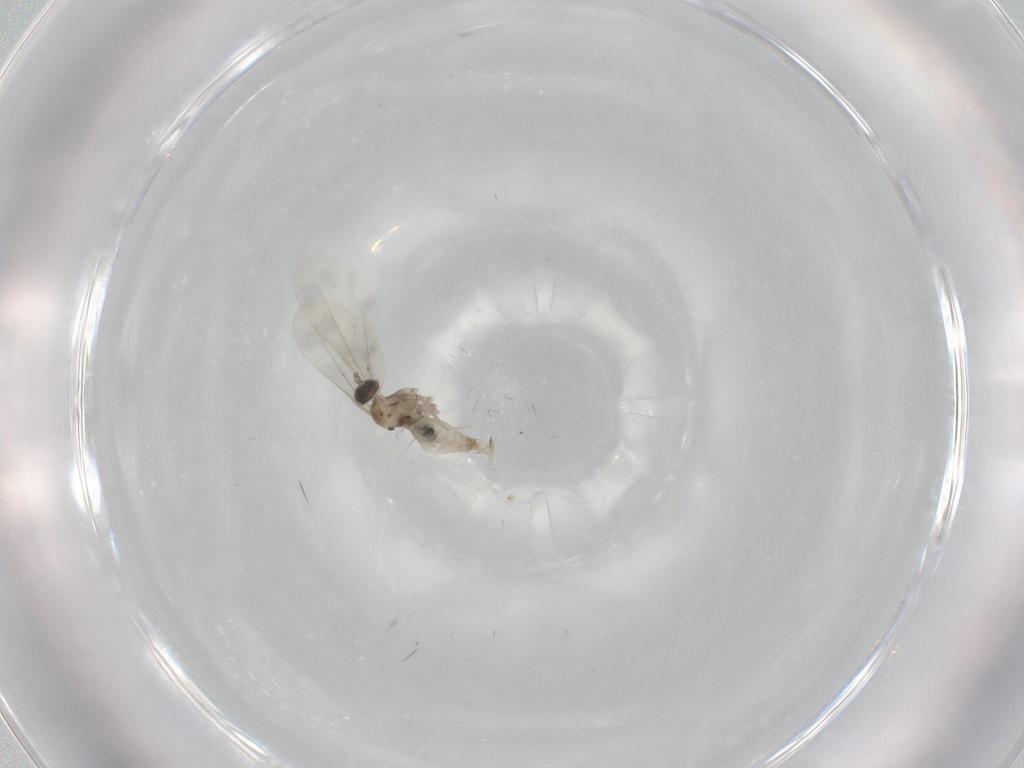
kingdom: Animalia
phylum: Arthropoda
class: Insecta
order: Diptera
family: Cecidomyiidae
